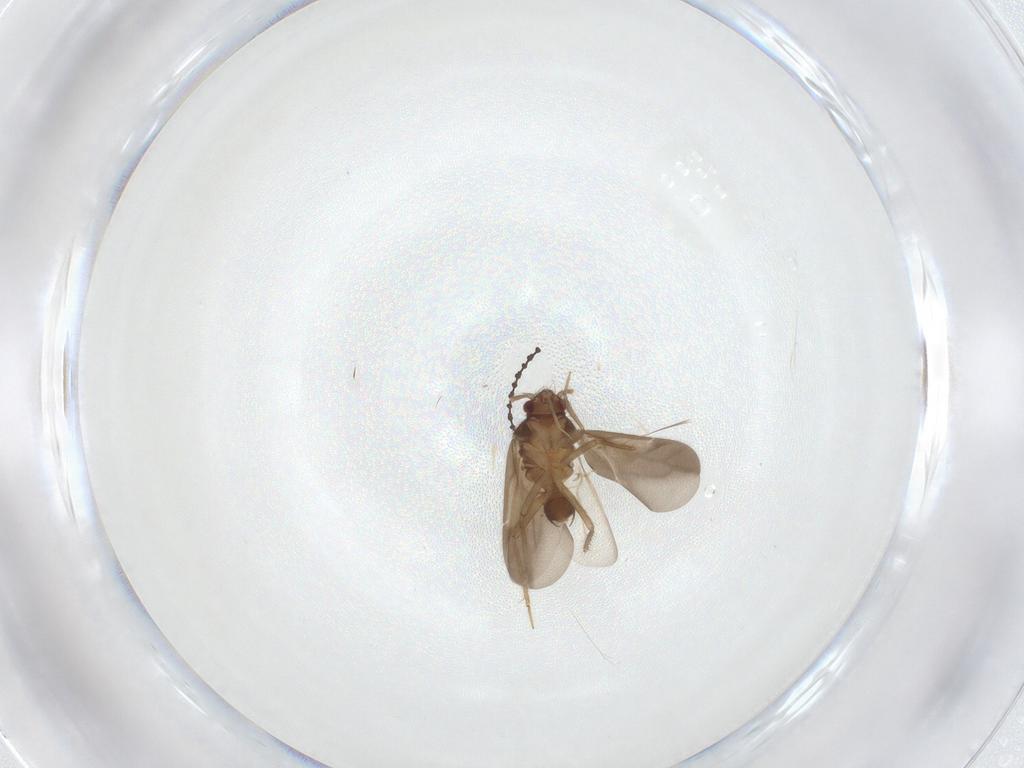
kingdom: Animalia
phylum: Arthropoda
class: Insecta
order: Hemiptera
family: Ceratocombidae
